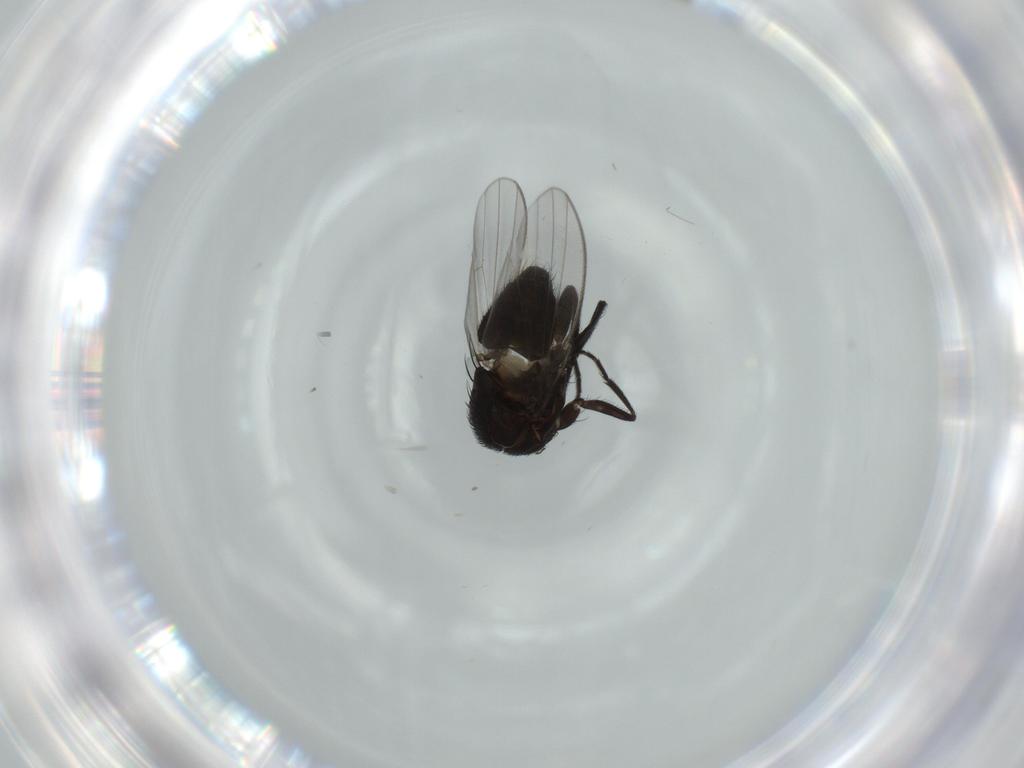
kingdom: Animalia
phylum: Arthropoda
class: Insecta
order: Diptera
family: Milichiidae
